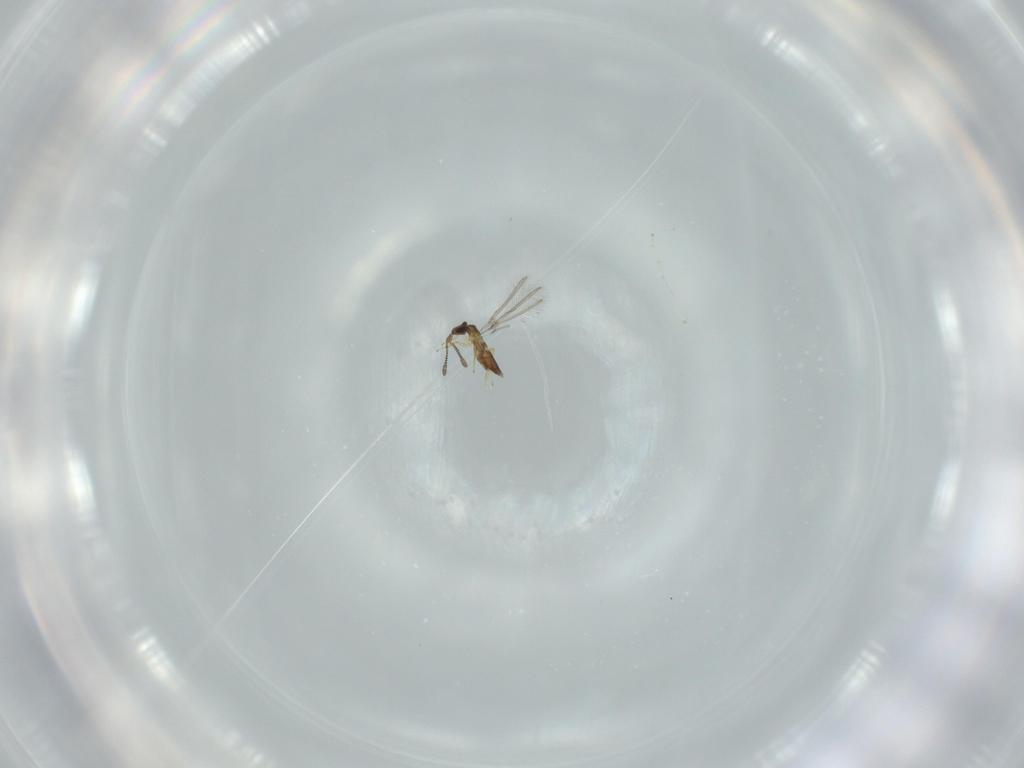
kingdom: Animalia
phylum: Arthropoda
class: Insecta
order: Hymenoptera
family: Mymaridae
